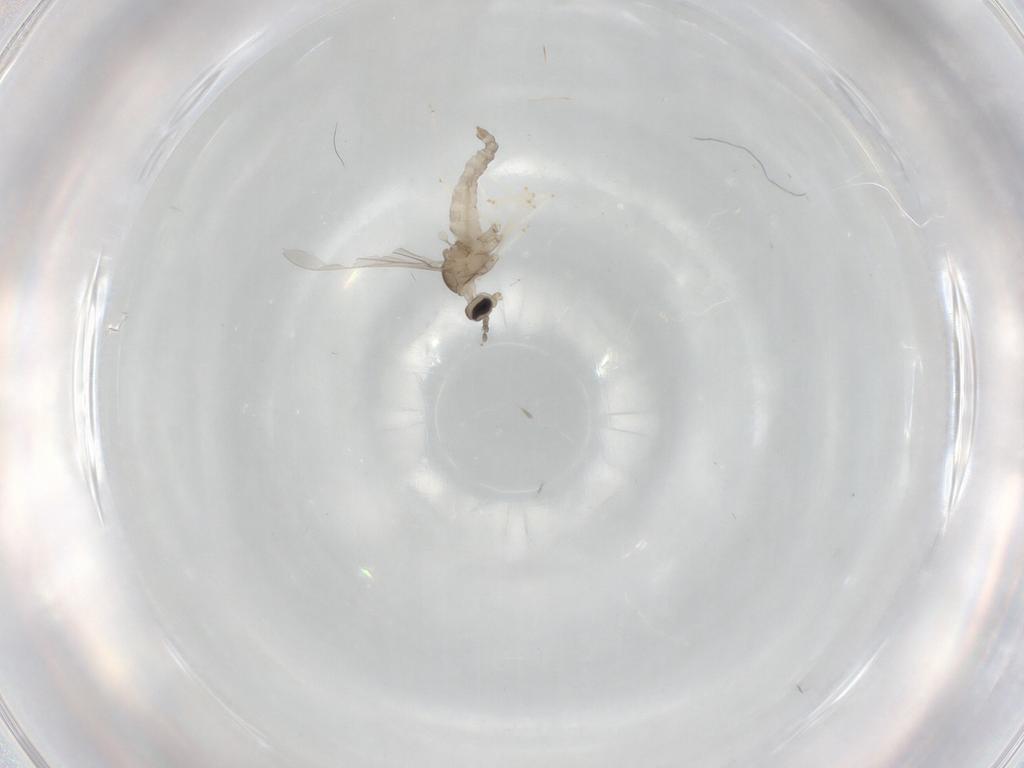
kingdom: Animalia
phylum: Arthropoda
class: Insecta
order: Diptera
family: Cecidomyiidae
